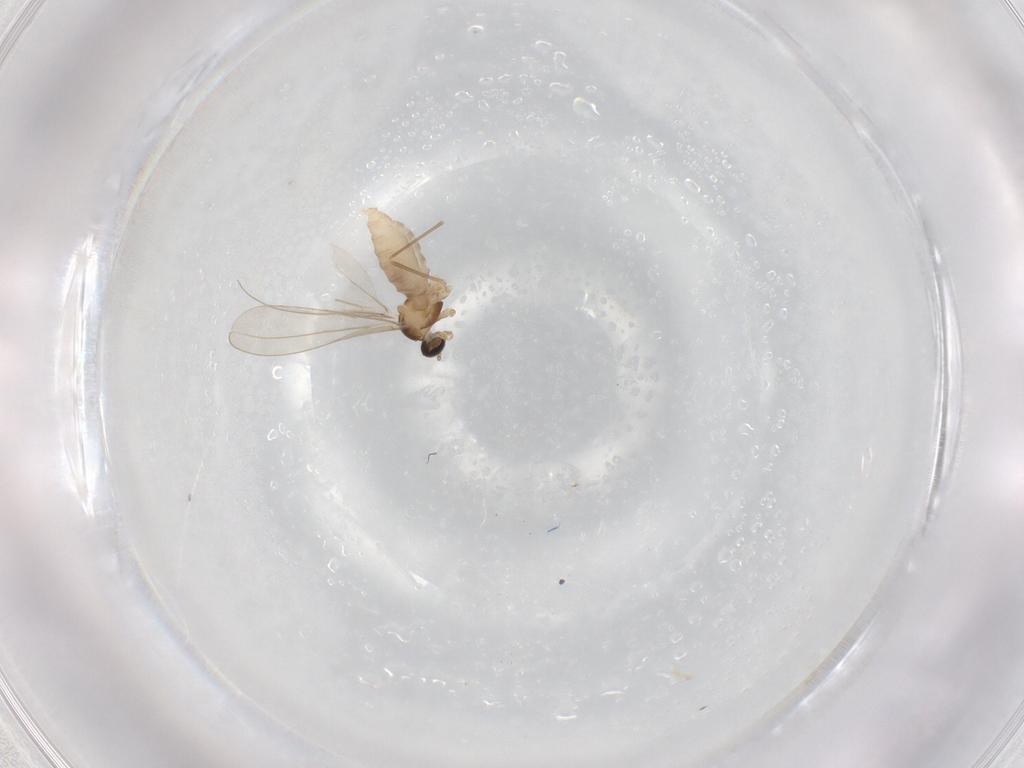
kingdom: Animalia
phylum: Arthropoda
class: Insecta
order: Diptera
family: Cecidomyiidae
